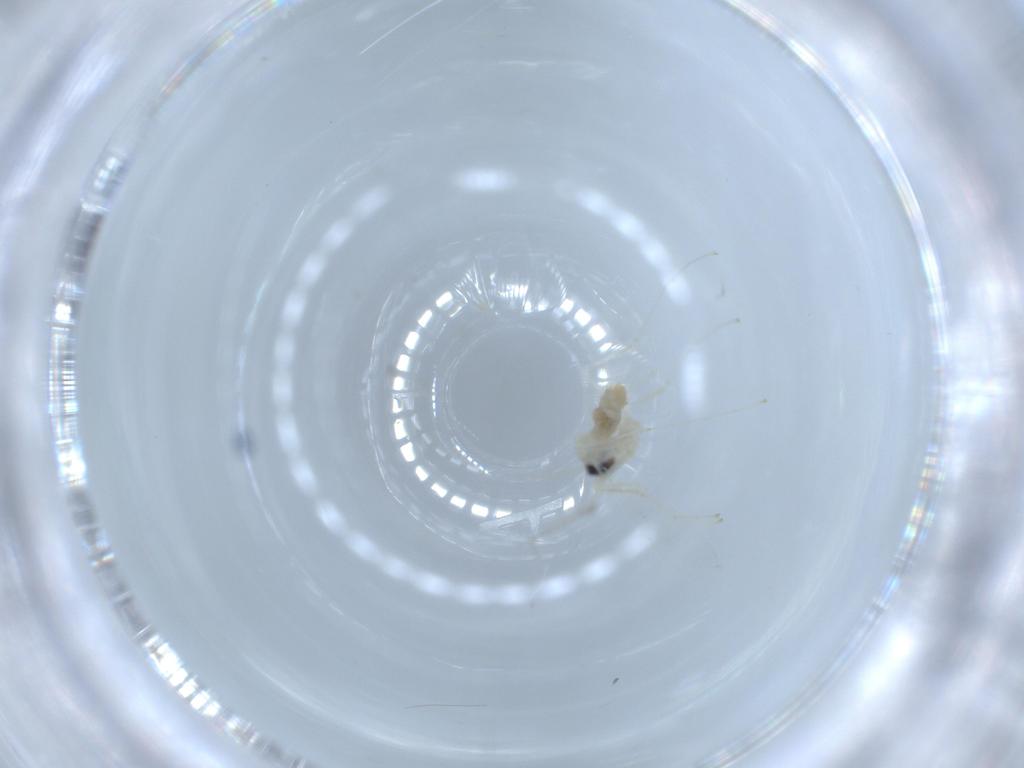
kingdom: Animalia
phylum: Arthropoda
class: Insecta
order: Diptera
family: Cecidomyiidae
